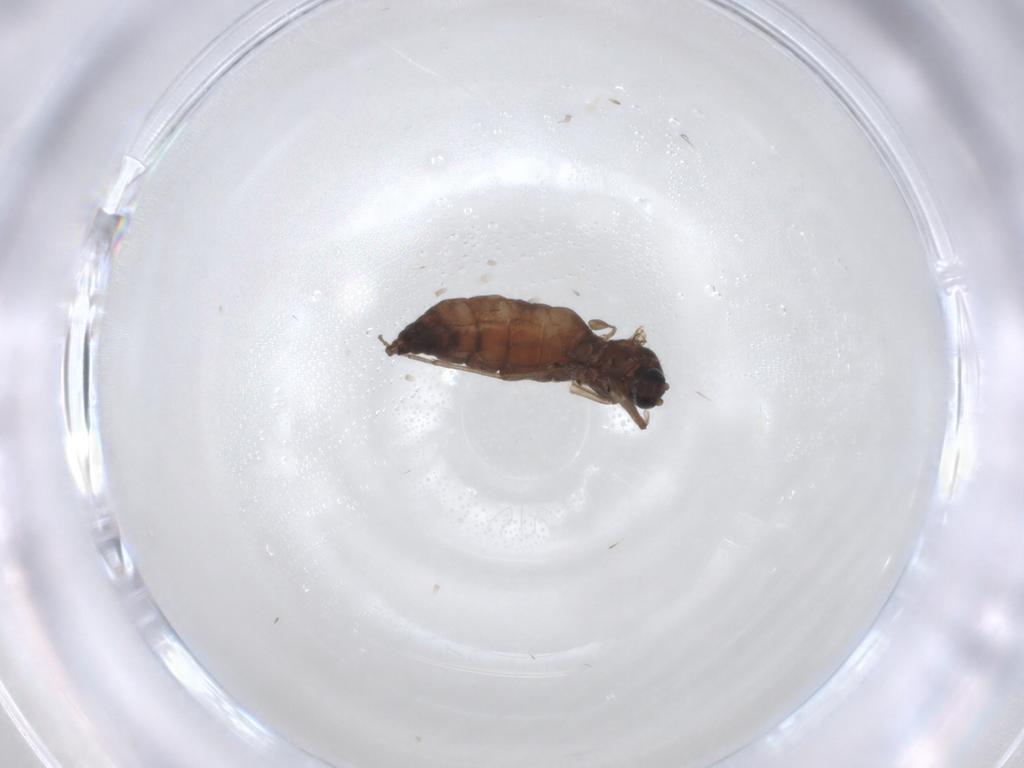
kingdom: Animalia
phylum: Arthropoda
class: Insecta
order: Diptera
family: Sciaridae
